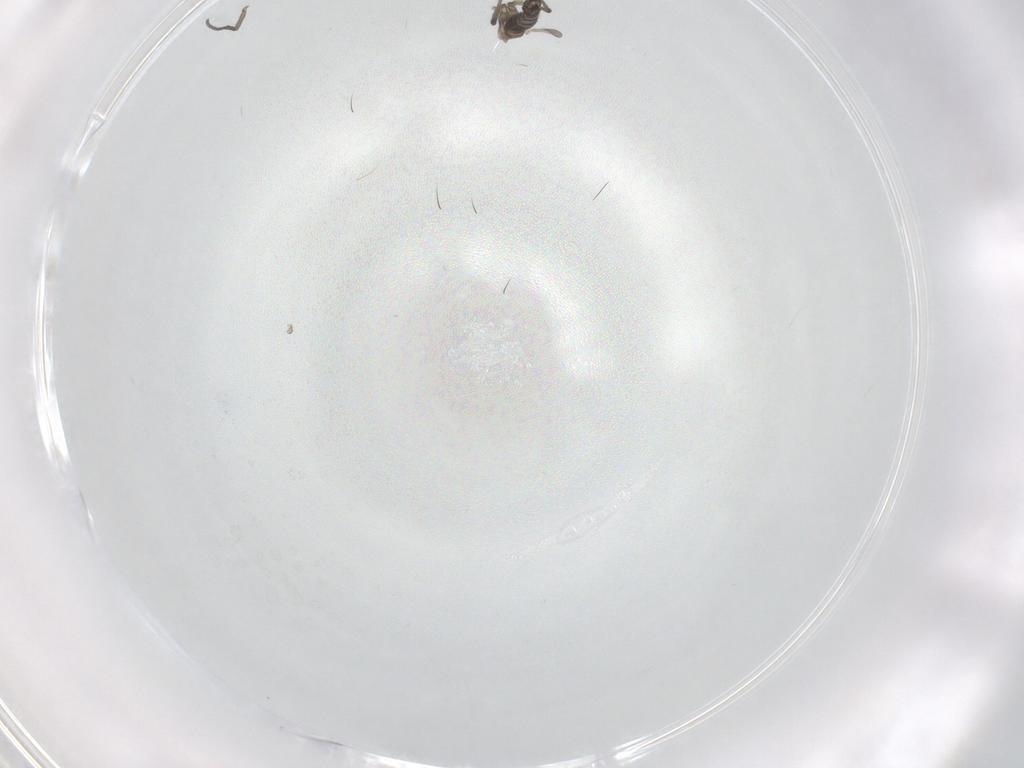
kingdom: Animalia
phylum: Arthropoda
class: Insecta
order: Diptera
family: Sciaridae
